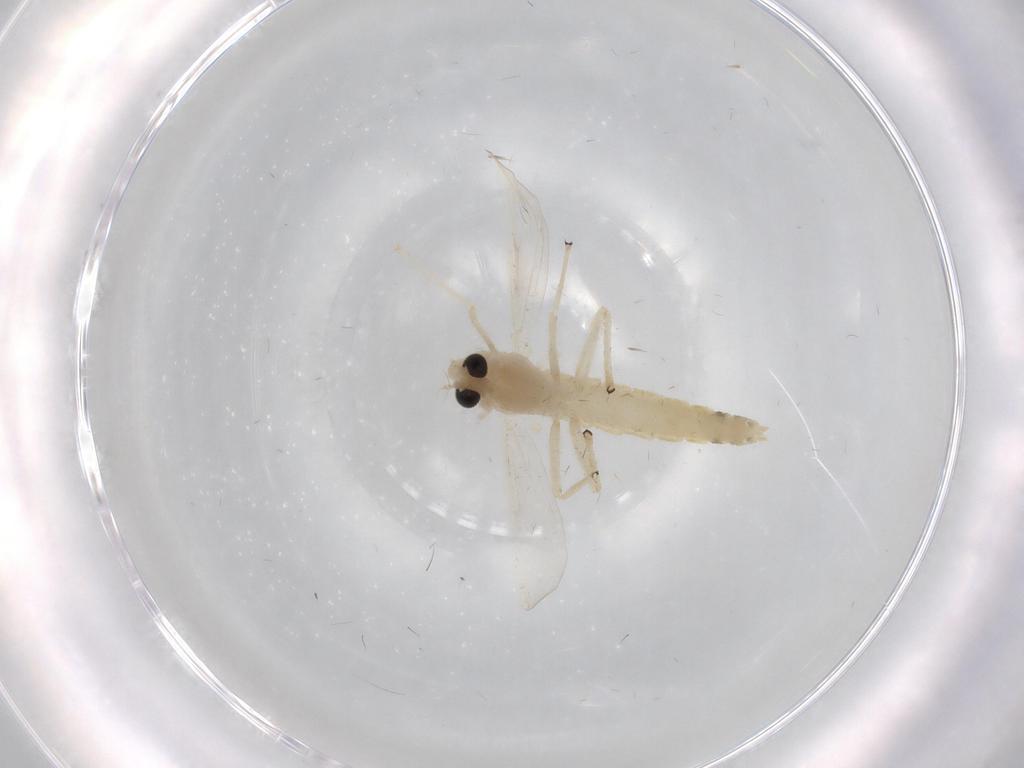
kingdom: Animalia
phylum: Arthropoda
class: Insecta
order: Diptera
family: Chironomidae
